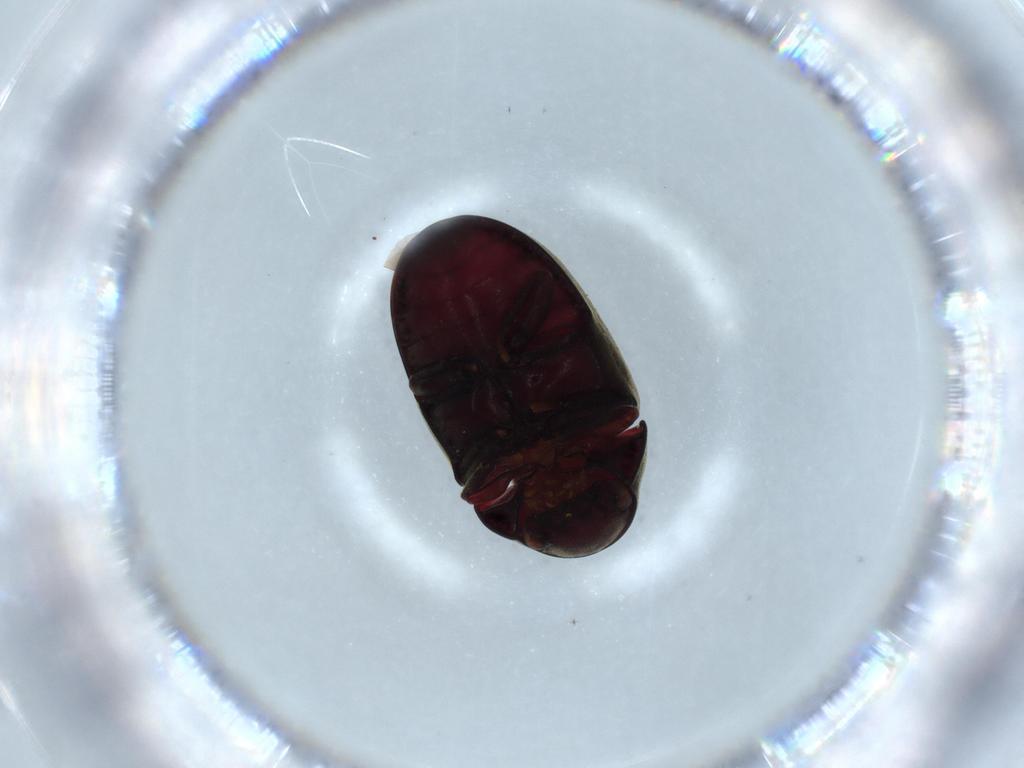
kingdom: Animalia
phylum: Arthropoda
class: Insecta
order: Coleoptera
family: Ptinidae
